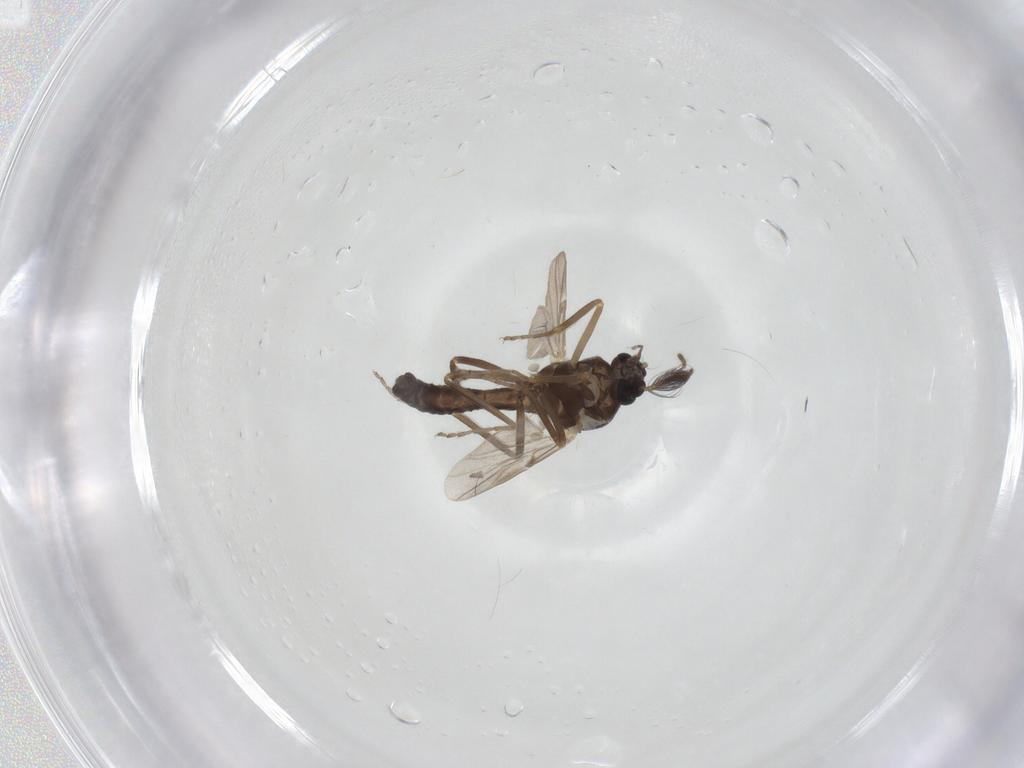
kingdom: Animalia
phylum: Arthropoda
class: Insecta
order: Diptera
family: Ceratopogonidae
